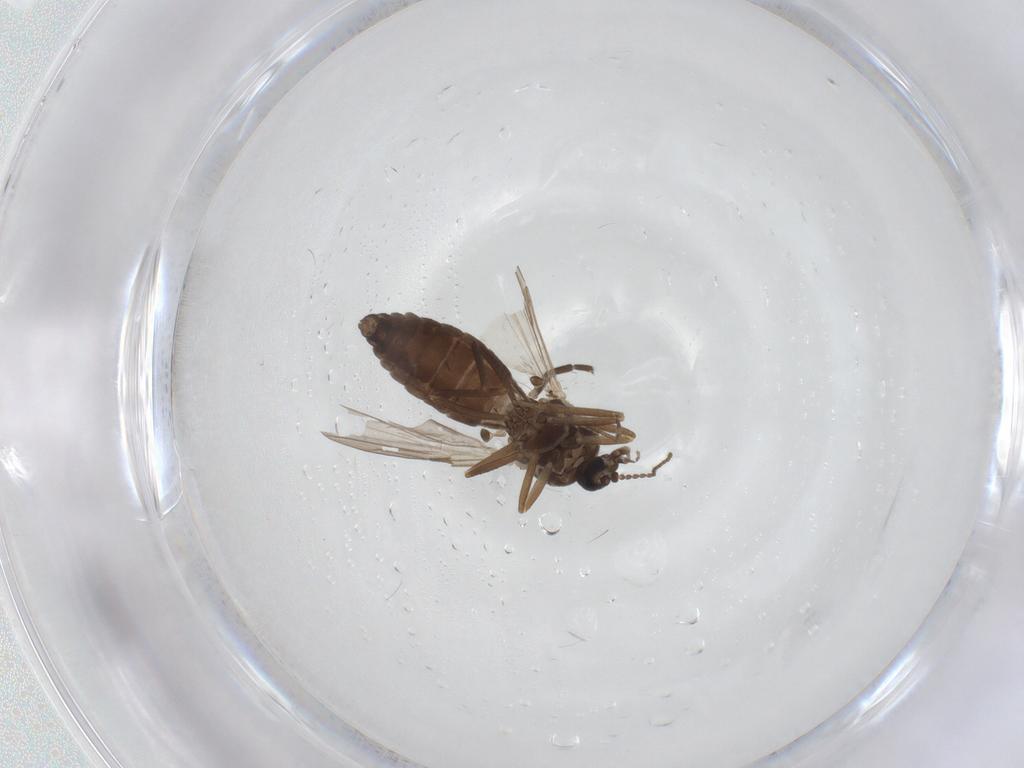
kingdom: Animalia
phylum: Arthropoda
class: Insecta
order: Diptera
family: Ceratopogonidae
